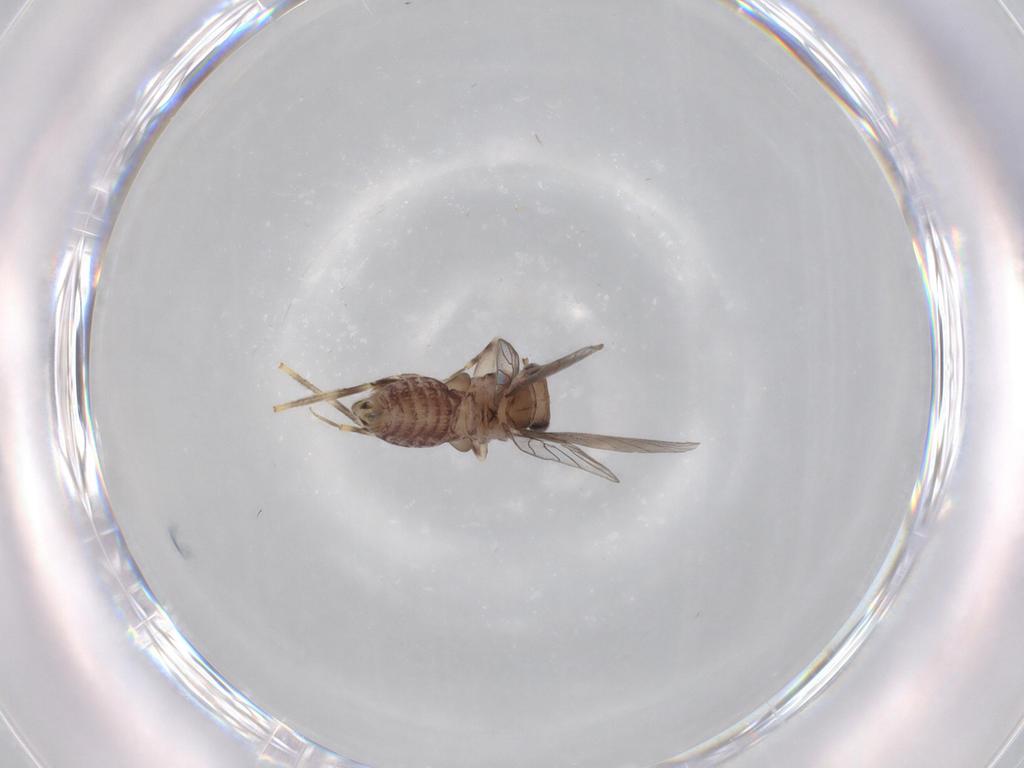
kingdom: Animalia
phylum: Arthropoda
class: Insecta
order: Psocodea
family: Lepidopsocidae
